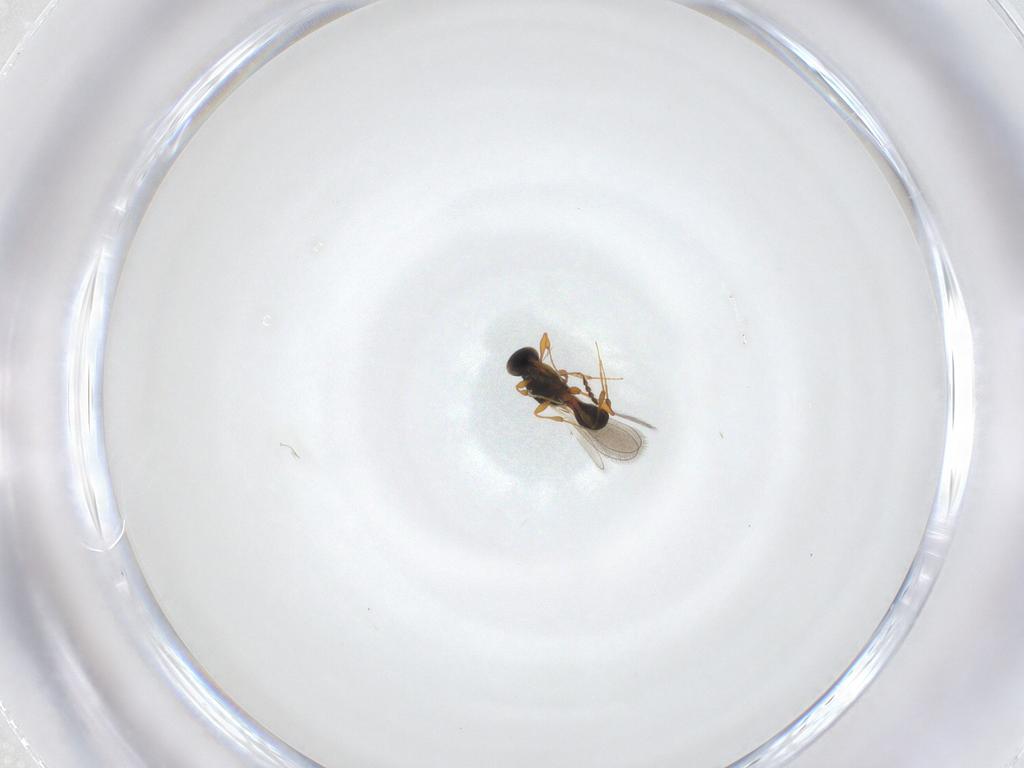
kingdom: Animalia
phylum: Arthropoda
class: Insecta
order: Hymenoptera
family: Platygastridae
